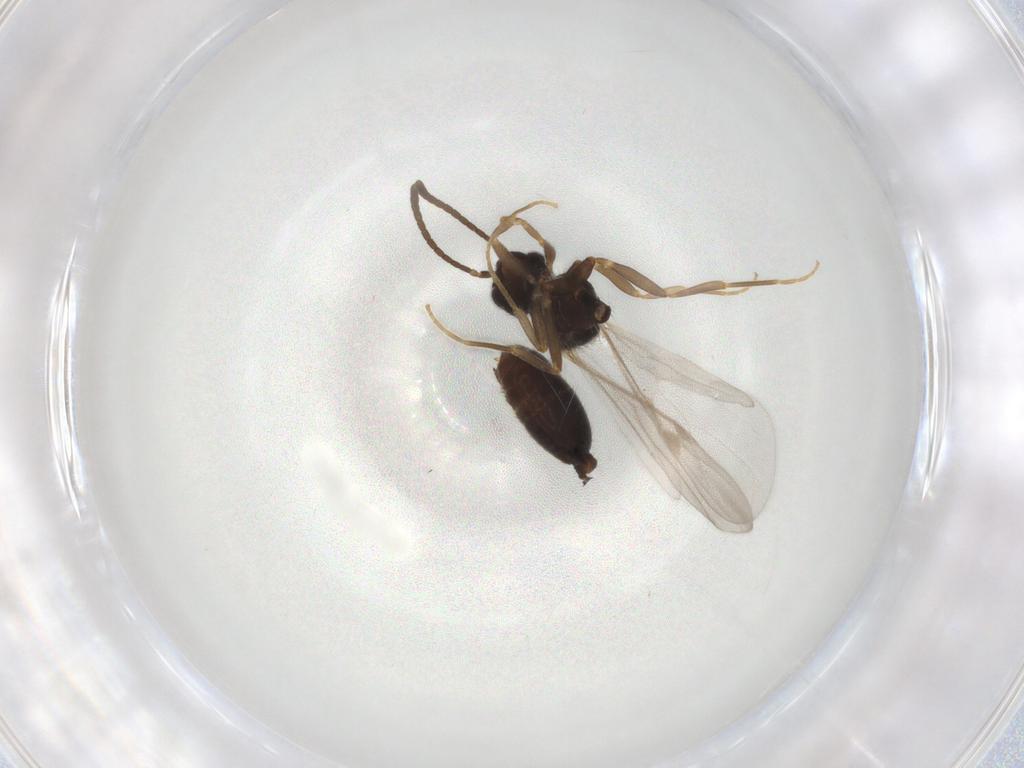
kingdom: Animalia
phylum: Arthropoda
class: Insecta
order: Hymenoptera
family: Formicidae
